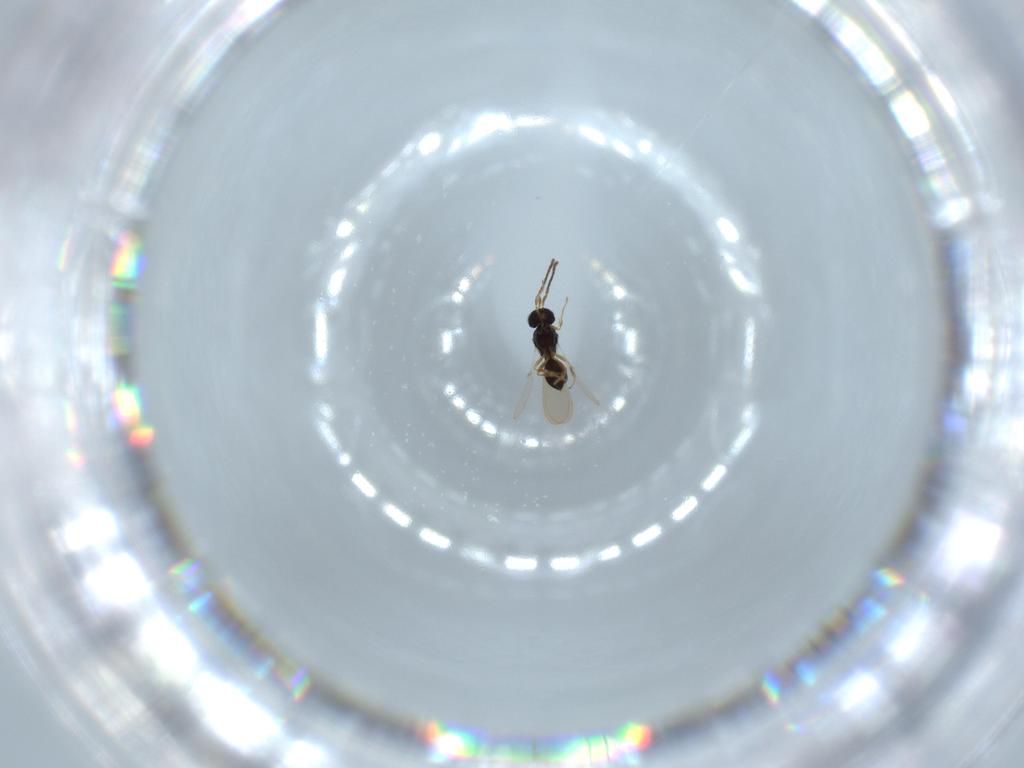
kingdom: Animalia
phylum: Arthropoda
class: Insecta
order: Hymenoptera
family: Scelionidae
